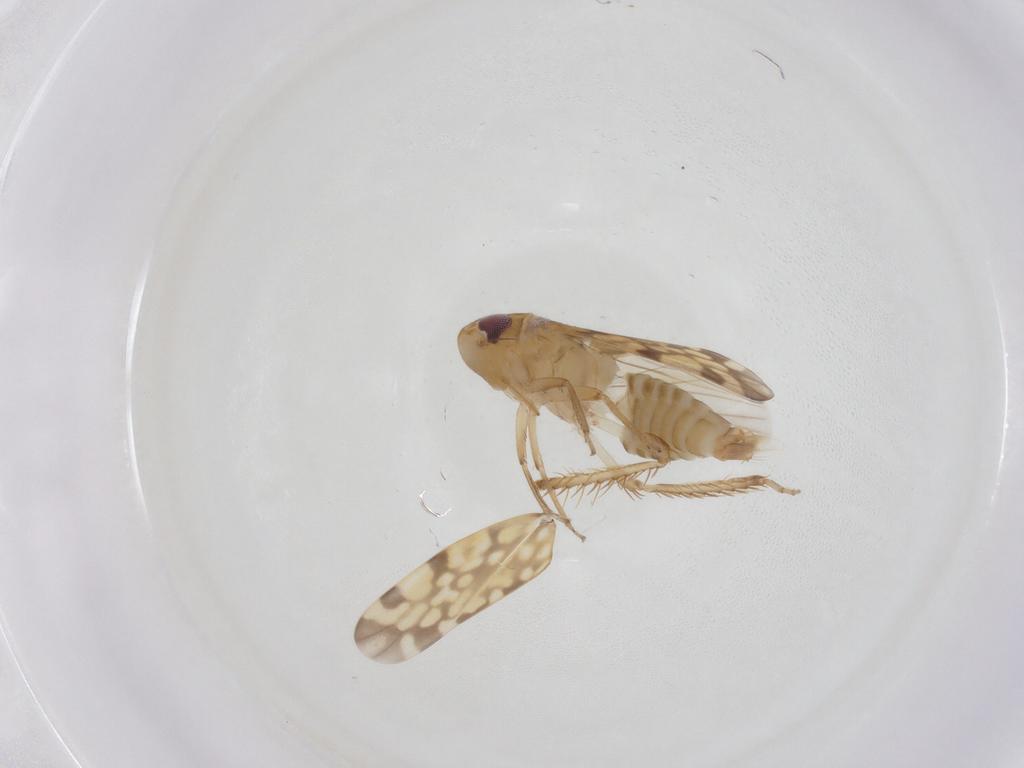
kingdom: Animalia
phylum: Arthropoda
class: Insecta
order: Hemiptera
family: Cicadellidae
